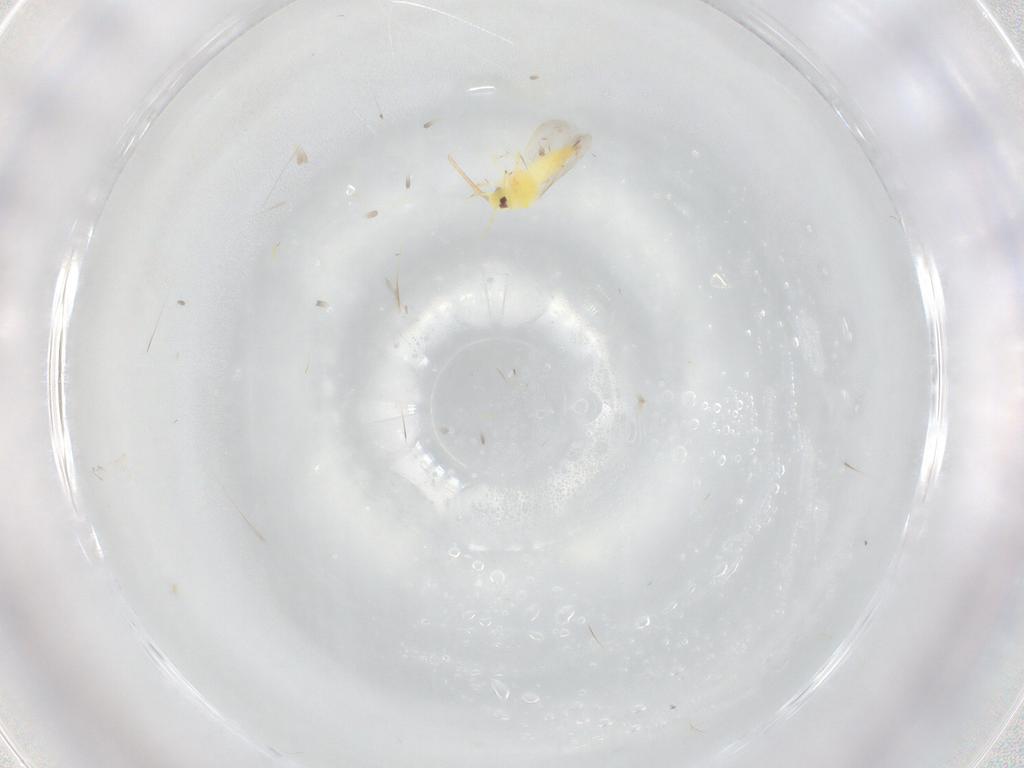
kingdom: Animalia
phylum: Arthropoda
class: Insecta
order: Hemiptera
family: Aleyrodidae
